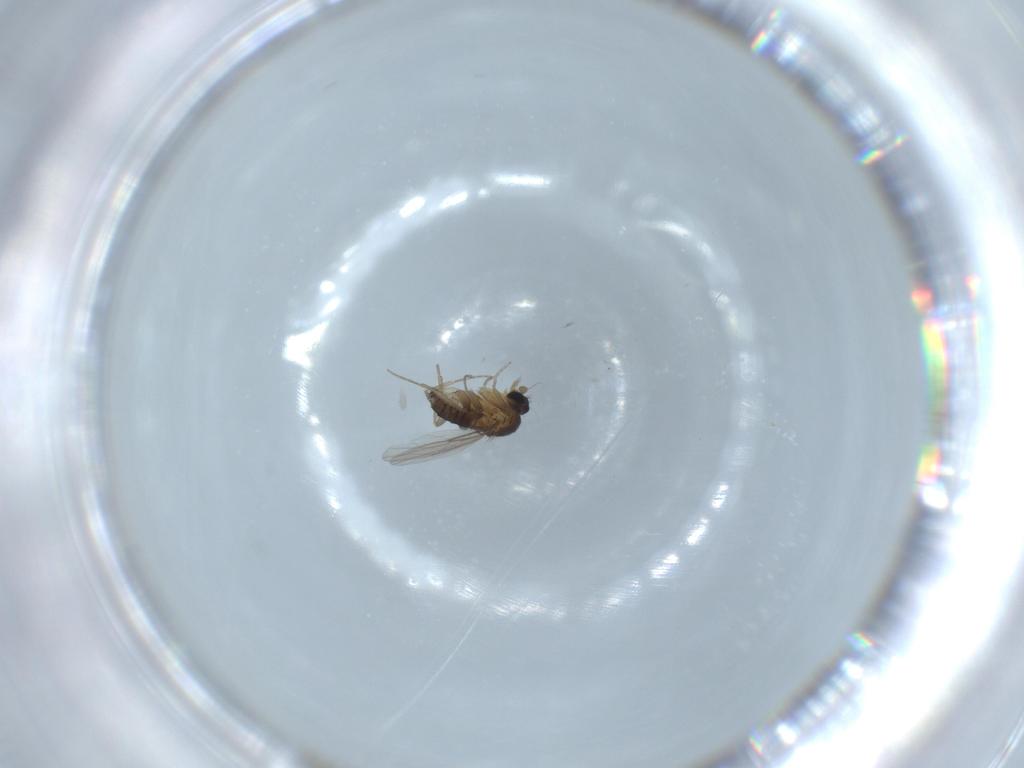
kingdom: Animalia
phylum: Arthropoda
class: Insecta
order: Diptera
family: Phoridae
